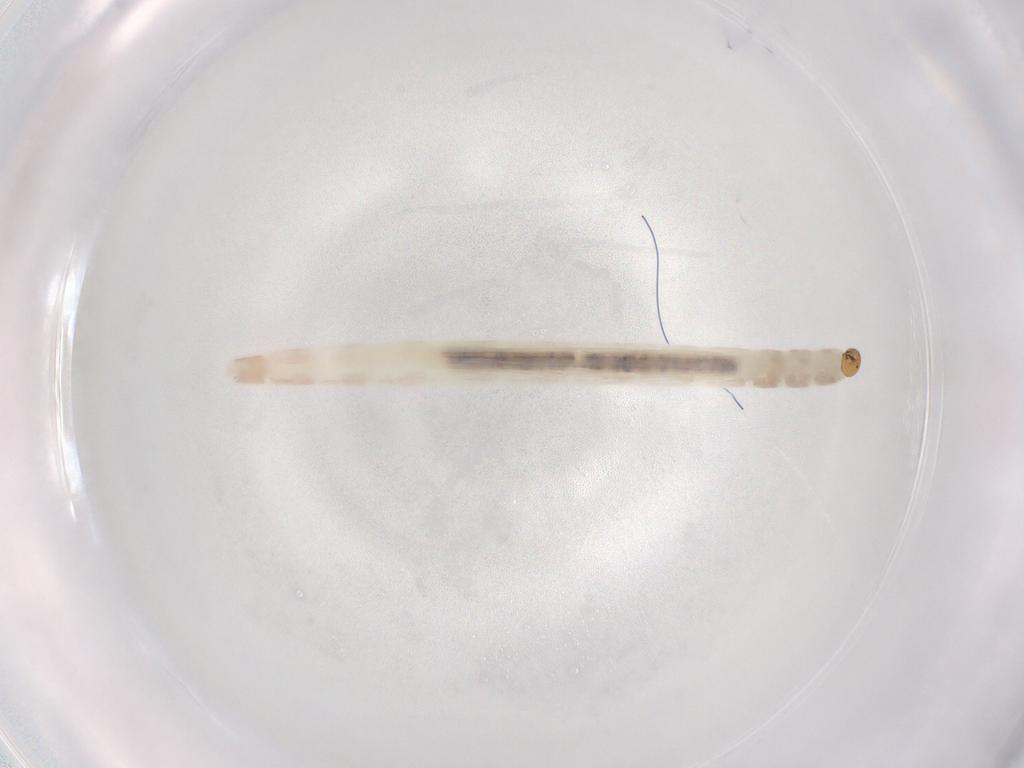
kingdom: Animalia
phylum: Arthropoda
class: Insecta
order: Diptera
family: Chironomidae
